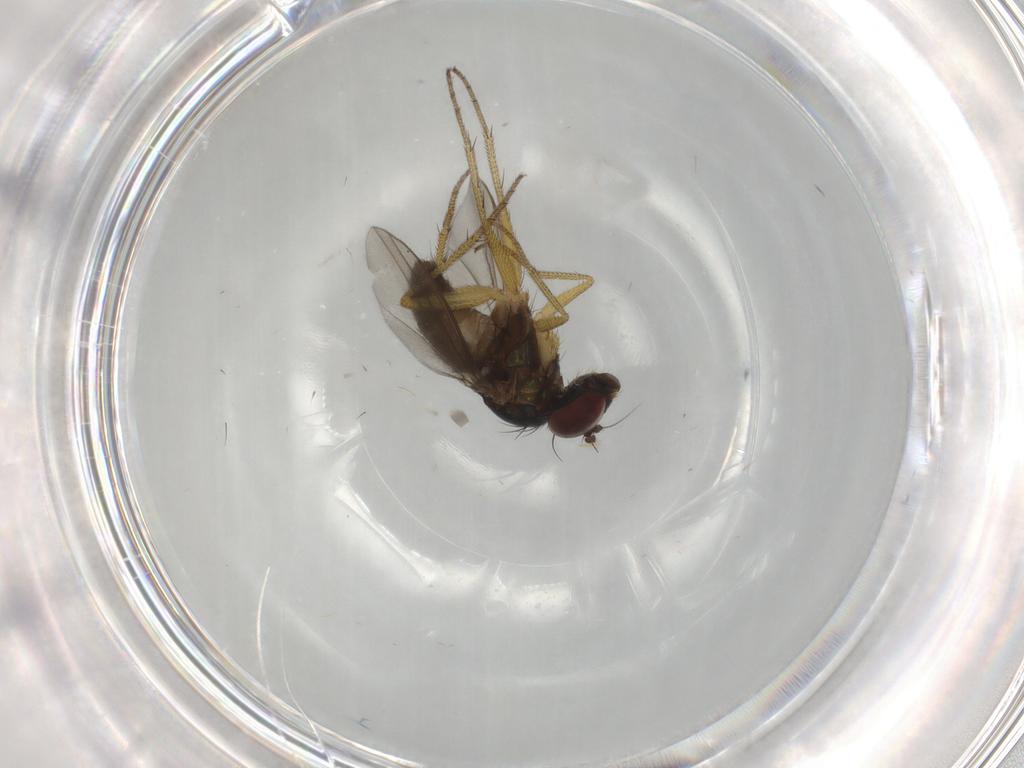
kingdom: Animalia
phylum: Arthropoda
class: Insecta
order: Diptera
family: Dolichopodidae
